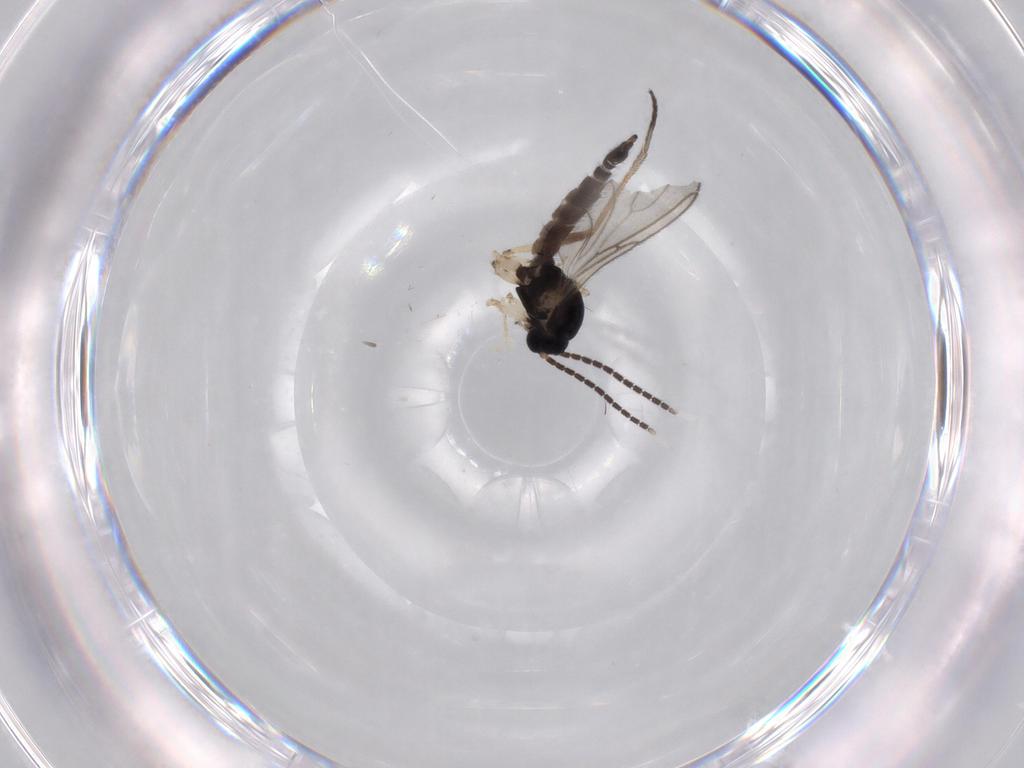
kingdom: Animalia
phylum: Arthropoda
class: Insecta
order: Diptera
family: Sciaridae
